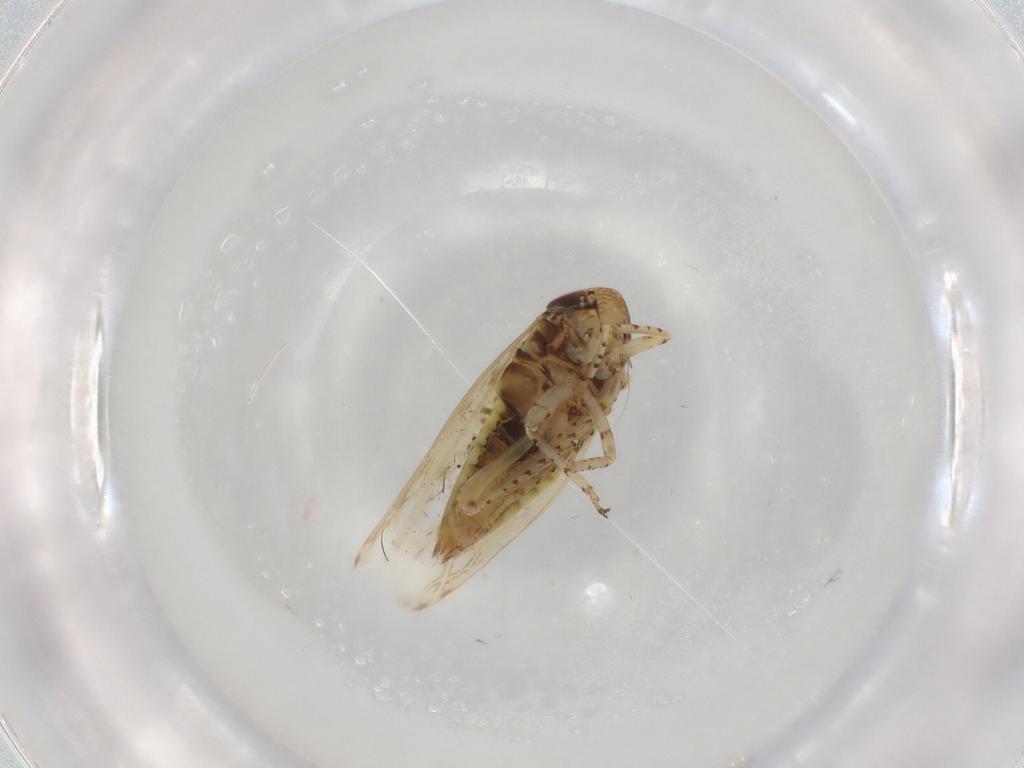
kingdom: Animalia
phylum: Arthropoda
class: Insecta
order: Hemiptera
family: Cicadellidae
